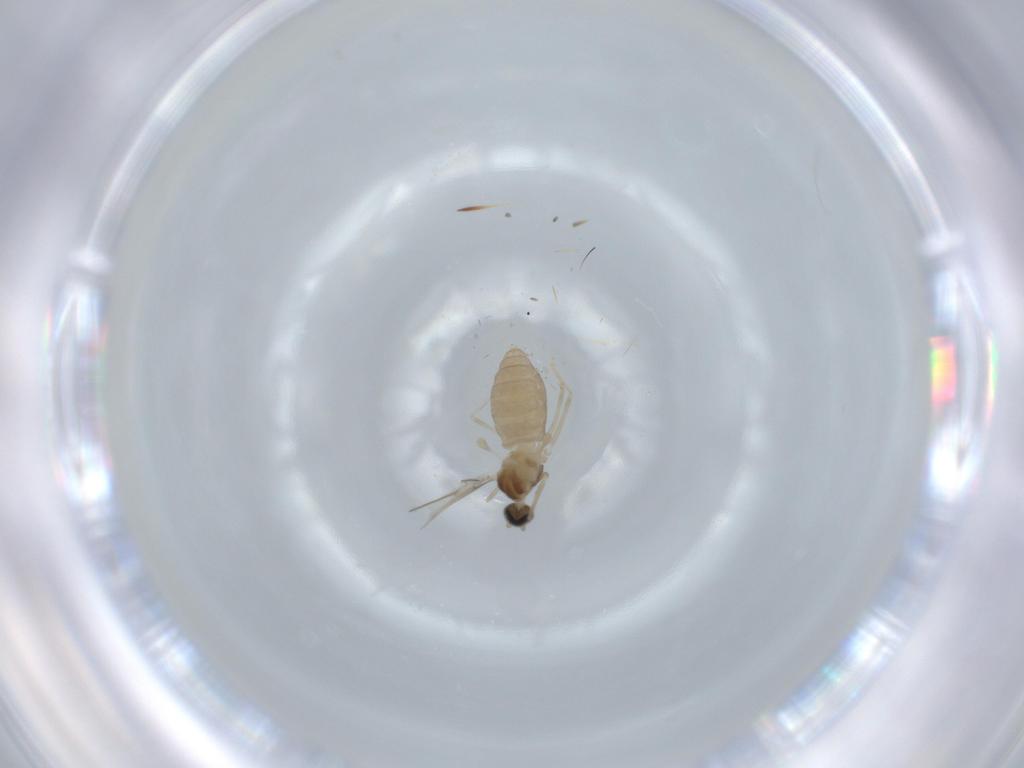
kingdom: Animalia
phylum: Arthropoda
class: Insecta
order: Diptera
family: Cecidomyiidae
